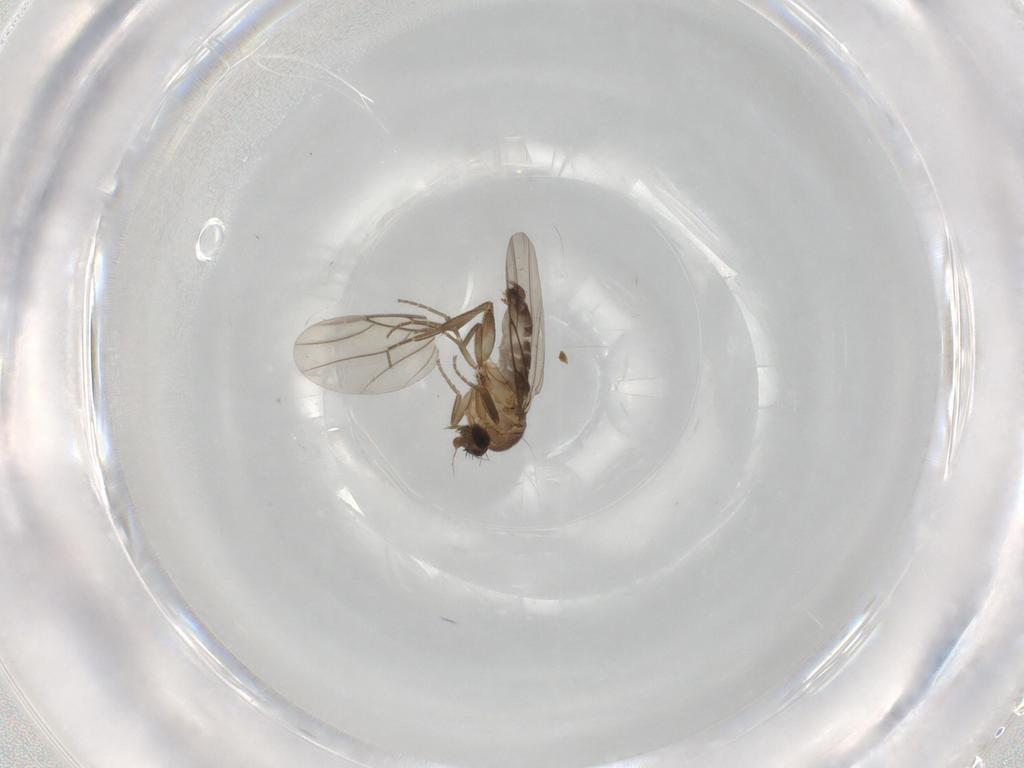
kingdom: Animalia
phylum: Arthropoda
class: Insecta
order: Diptera
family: Phoridae
